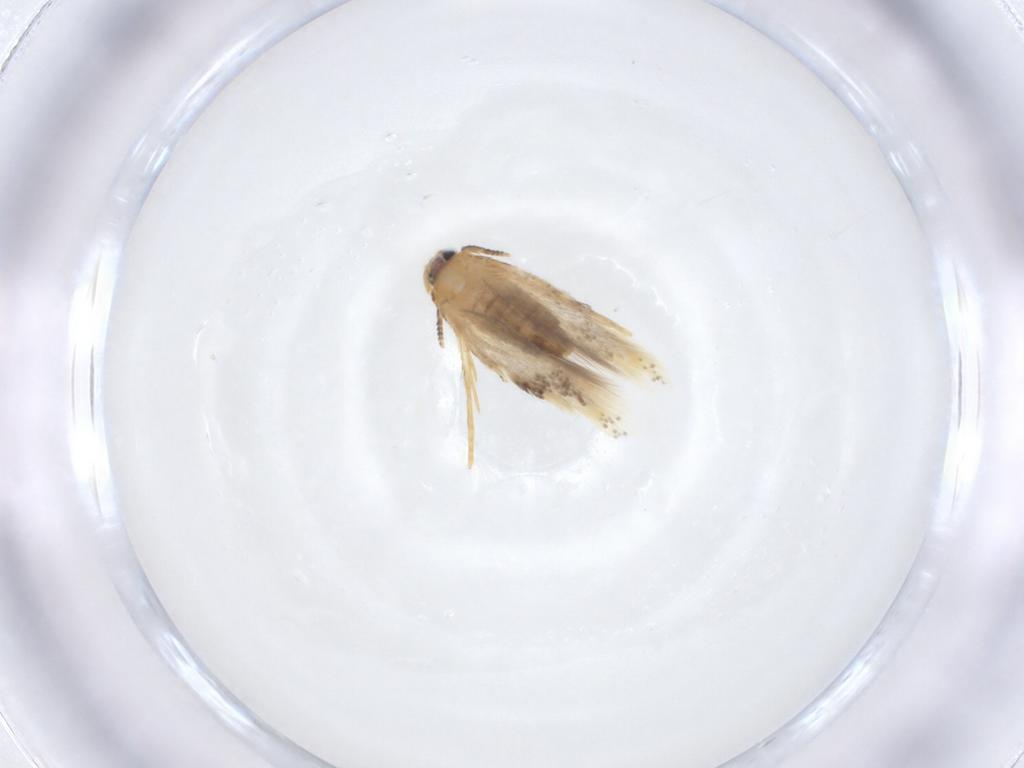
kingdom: Animalia
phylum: Arthropoda
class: Insecta
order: Lepidoptera
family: Nepticulidae
